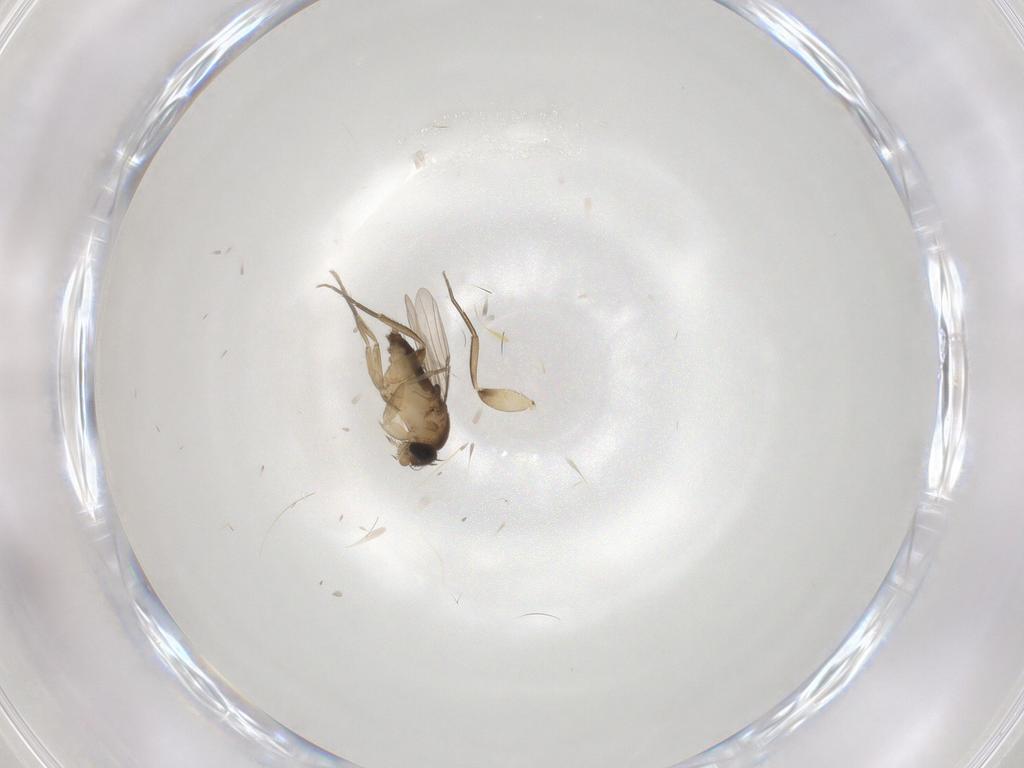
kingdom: Animalia
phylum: Arthropoda
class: Insecta
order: Diptera
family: Phoridae
